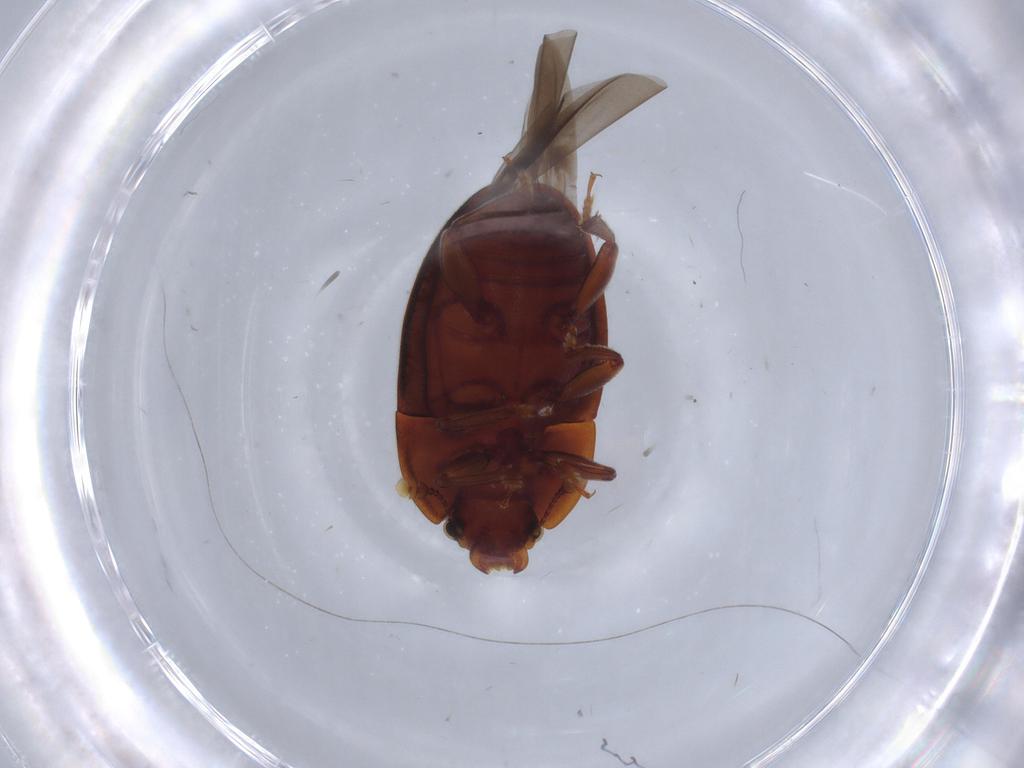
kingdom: Animalia
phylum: Arthropoda
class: Insecta
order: Coleoptera
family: Nitidulidae
